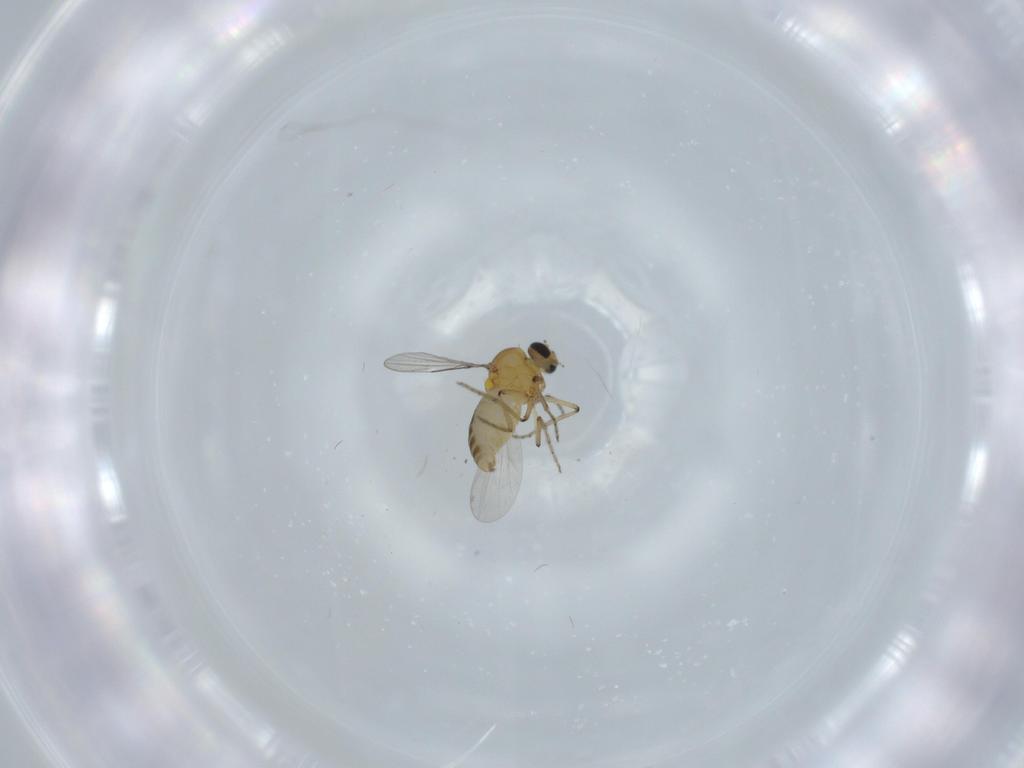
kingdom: Animalia
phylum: Arthropoda
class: Insecta
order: Diptera
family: Ceratopogonidae
